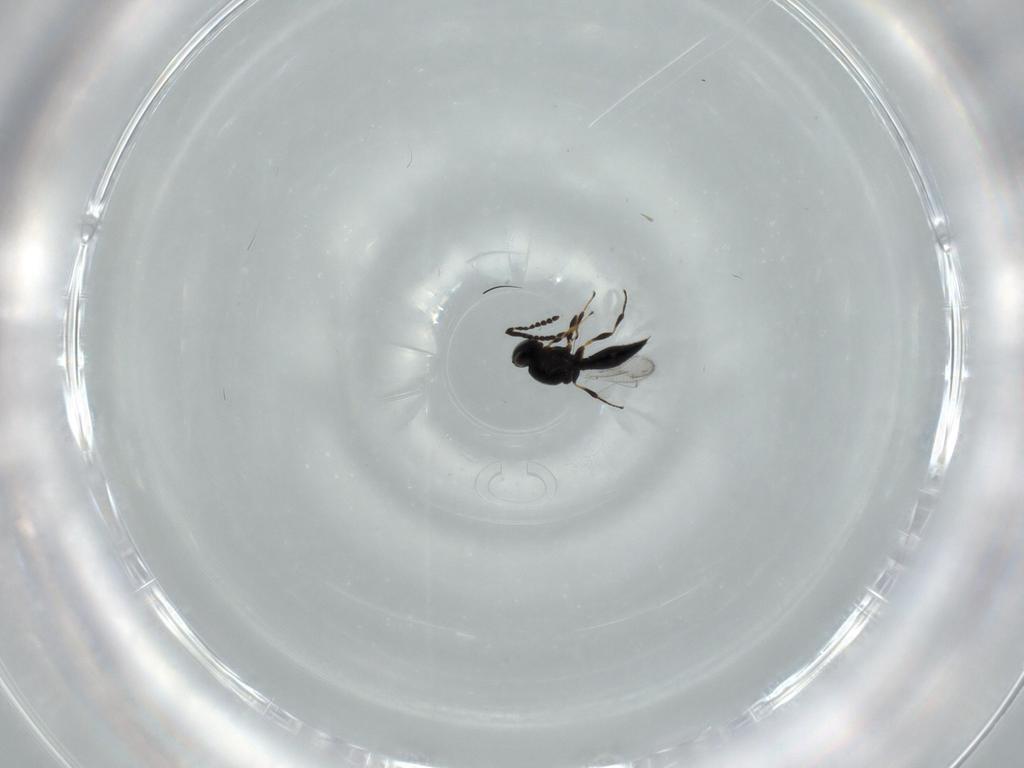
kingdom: Animalia
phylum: Arthropoda
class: Insecta
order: Hymenoptera
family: Platygastridae
